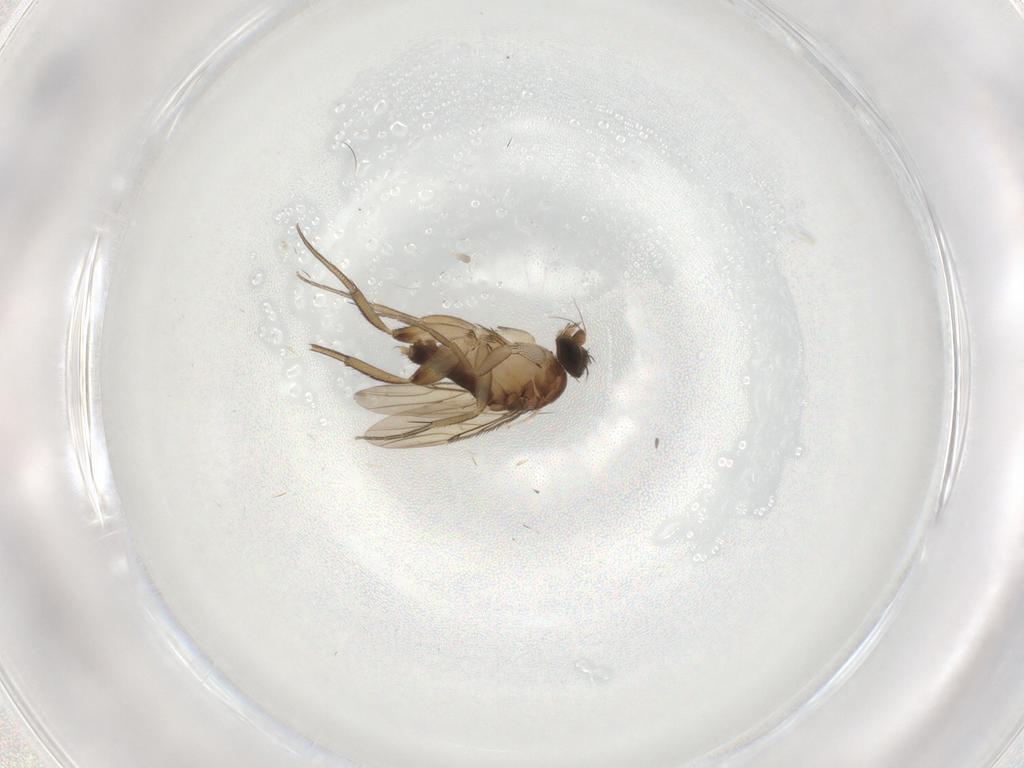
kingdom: Animalia
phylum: Arthropoda
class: Insecta
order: Diptera
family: Phoridae
